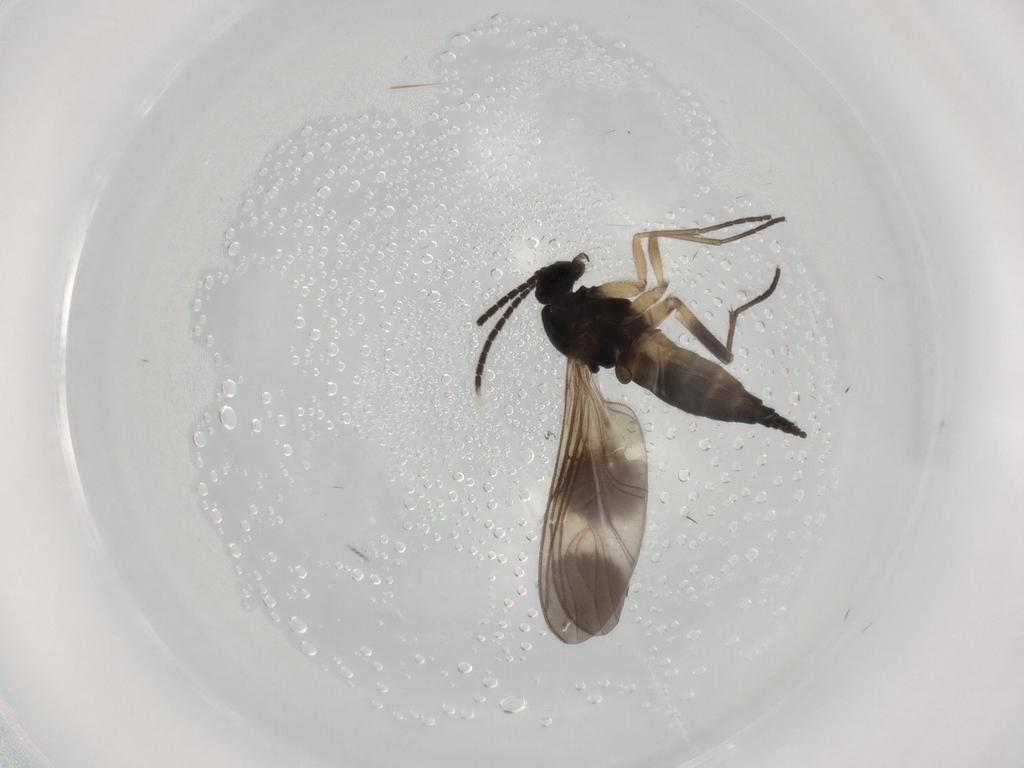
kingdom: Animalia
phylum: Arthropoda
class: Insecta
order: Diptera
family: Sciaridae
